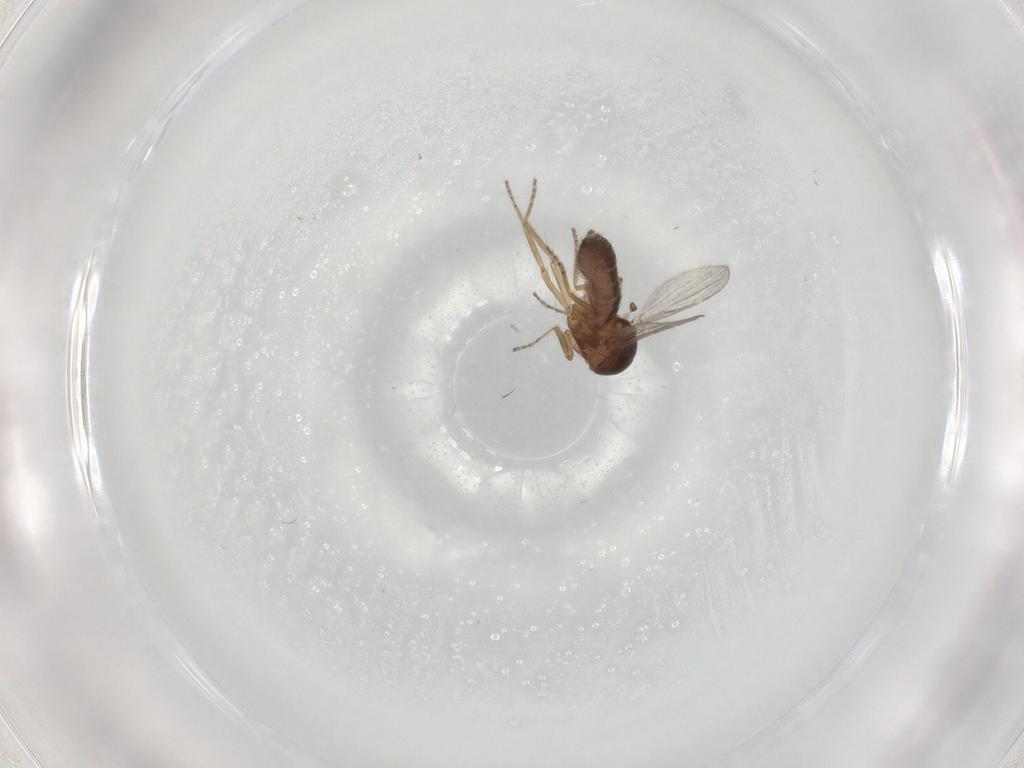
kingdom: Animalia
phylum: Arthropoda
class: Insecta
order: Diptera
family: Ceratopogonidae
